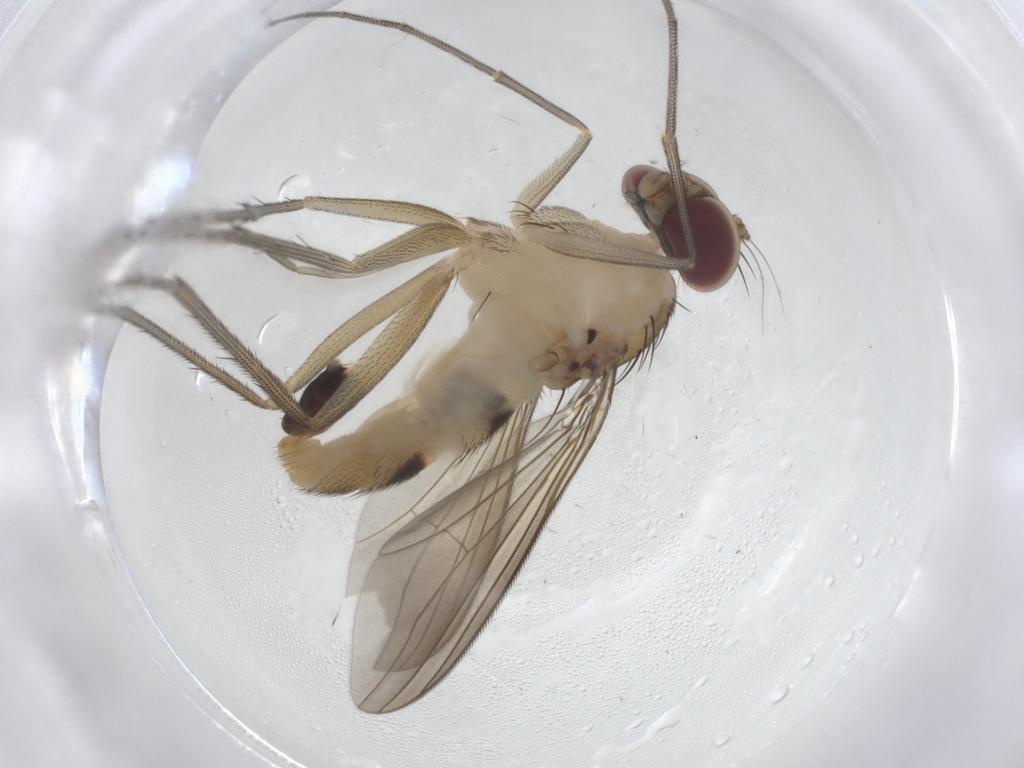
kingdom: Animalia
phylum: Arthropoda
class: Insecta
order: Diptera
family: Dolichopodidae
